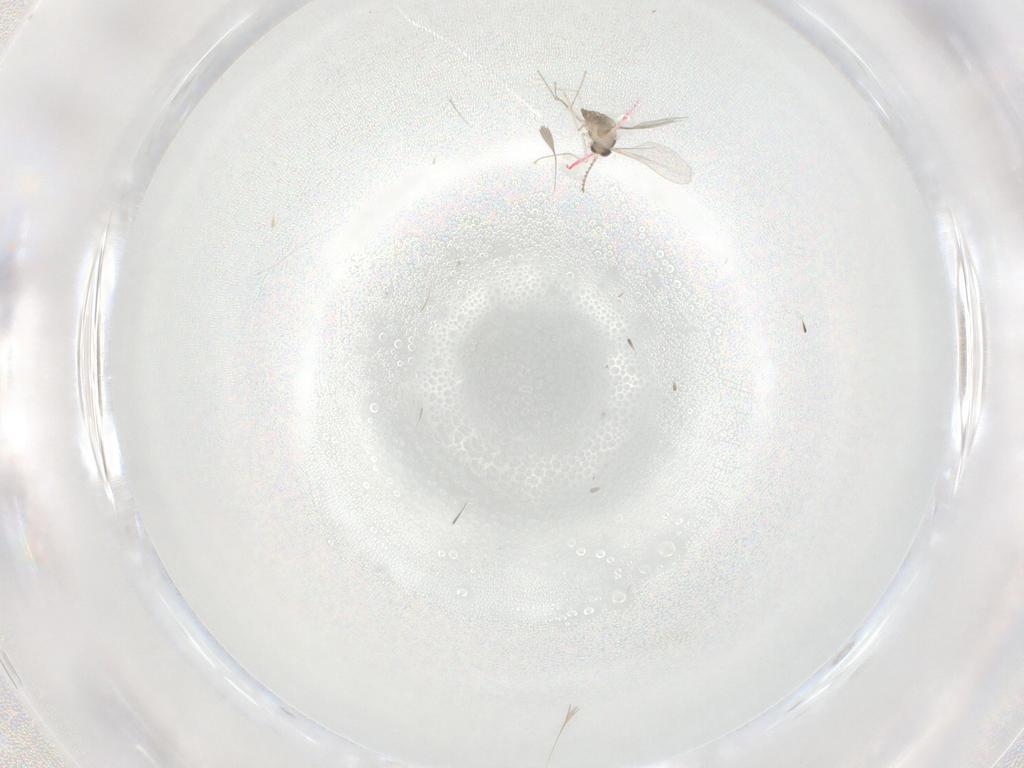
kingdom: Animalia
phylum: Arthropoda
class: Insecta
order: Diptera
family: Cecidomyiidae
